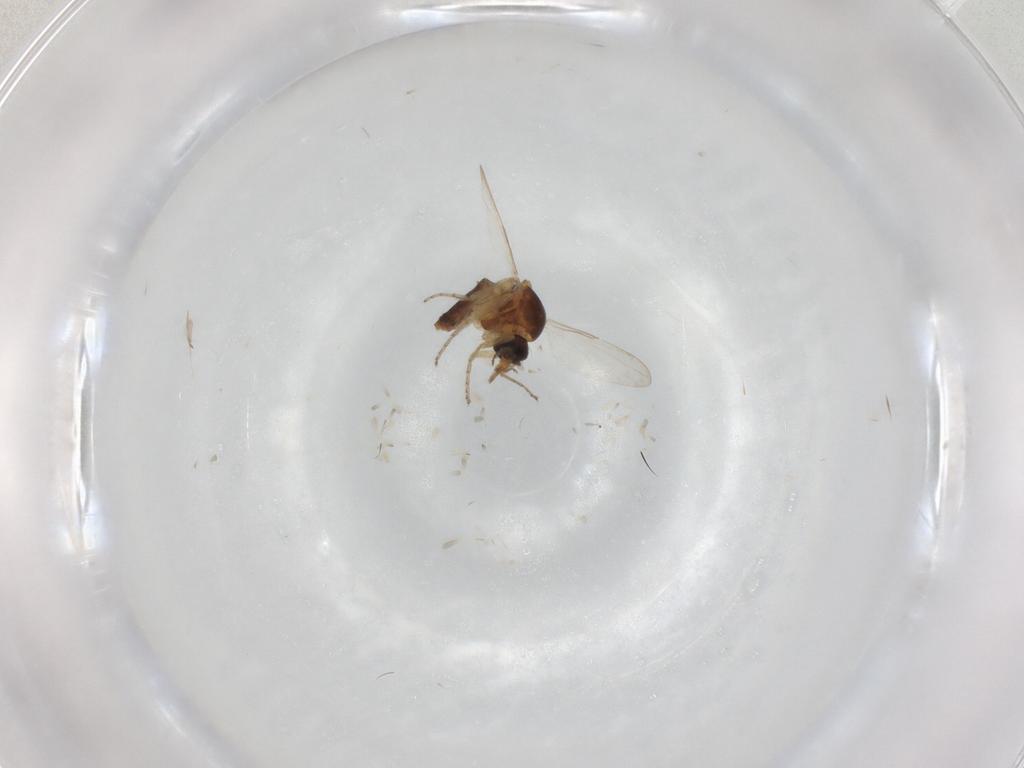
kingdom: Animalia
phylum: Arthropoda
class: Insecta
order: Diptera
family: Ceratopogonidae
